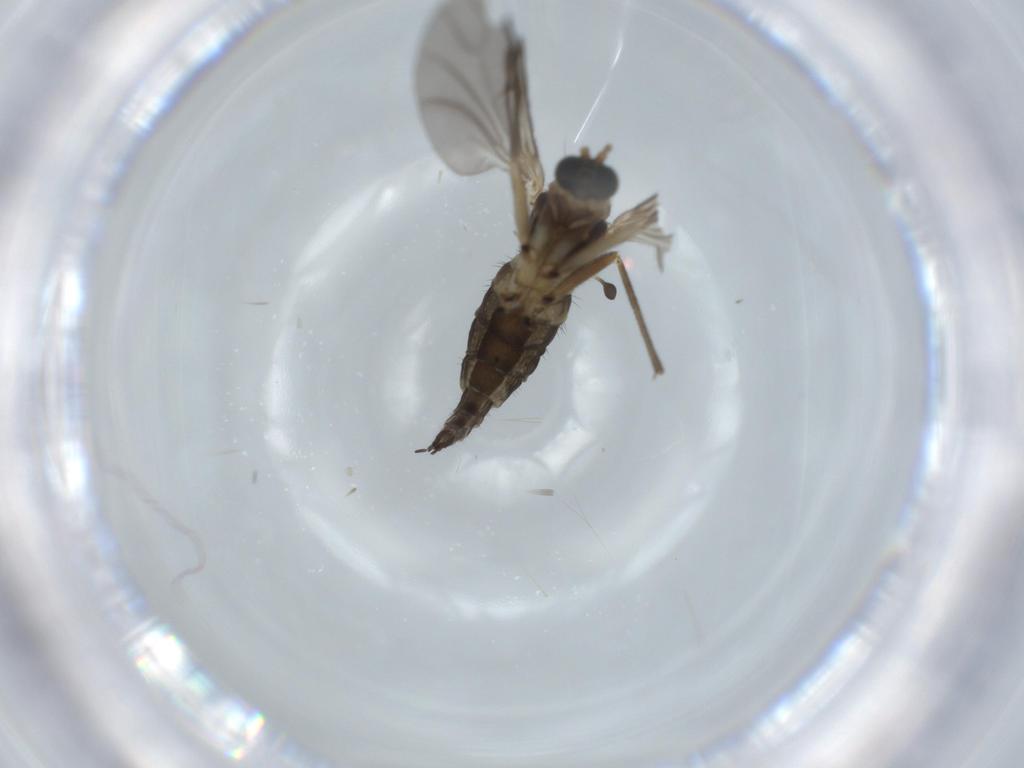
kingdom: Animalia
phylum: Arthropoda
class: Insecta
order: Diptera
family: Sciaridae
